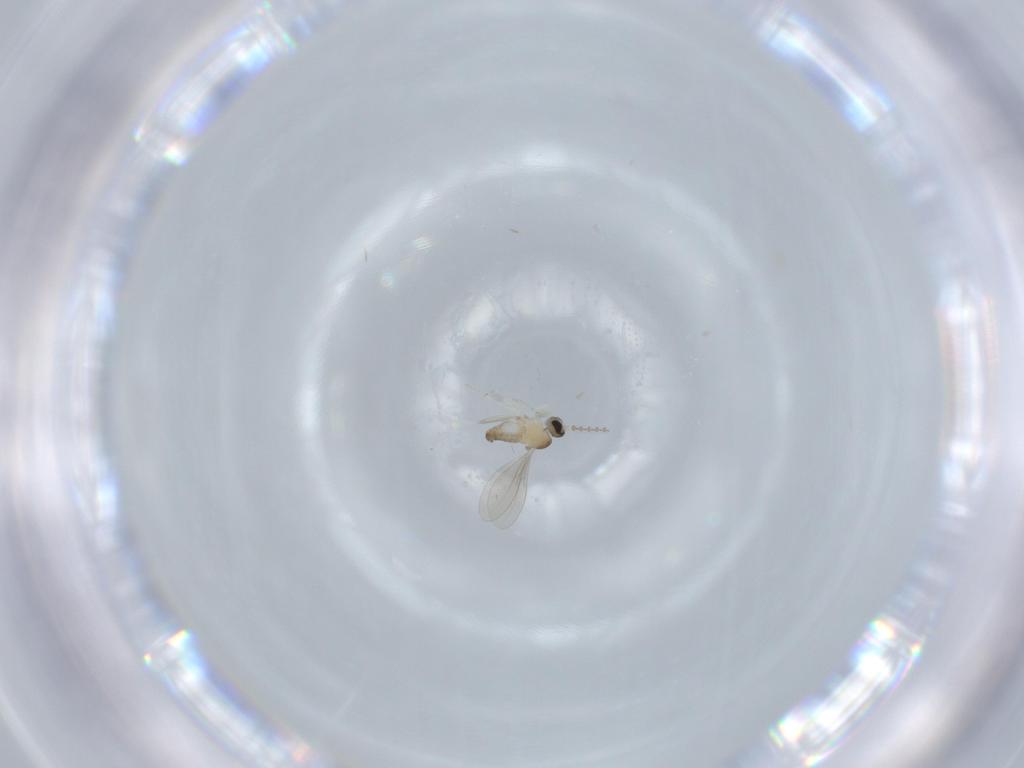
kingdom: Animalia
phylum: Arthropoda
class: Insecta
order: Diptera
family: Cecidomyiidae
